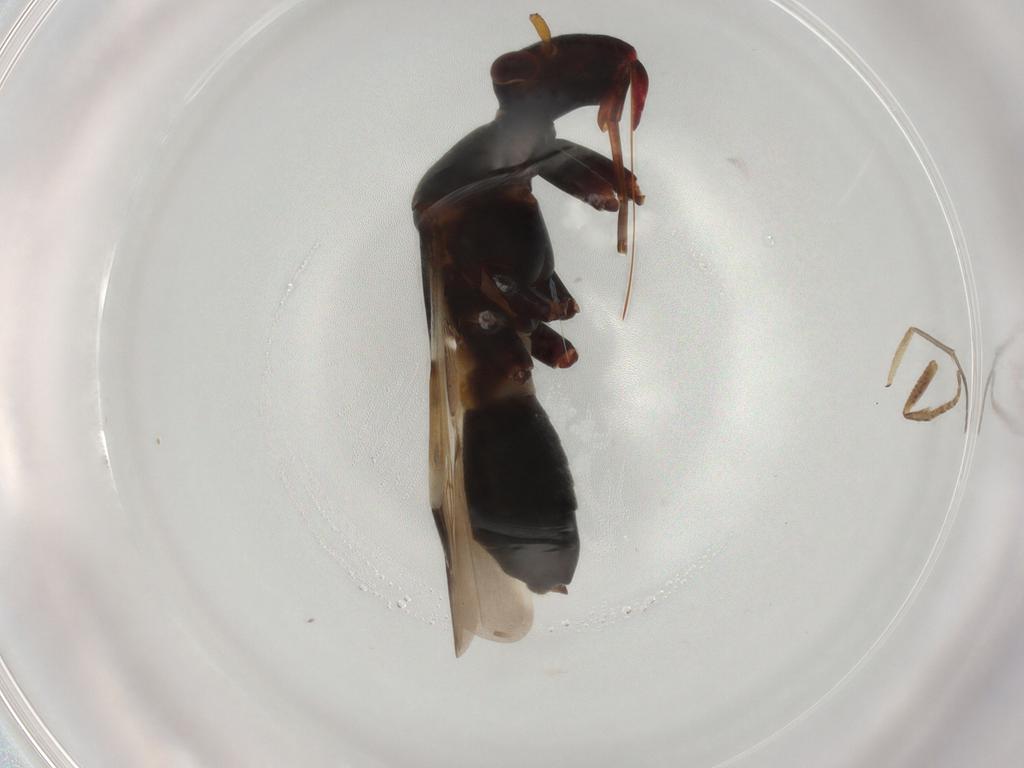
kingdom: Animalia
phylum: Arthropoda
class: Insecta
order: Hemiptera
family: Miridae
